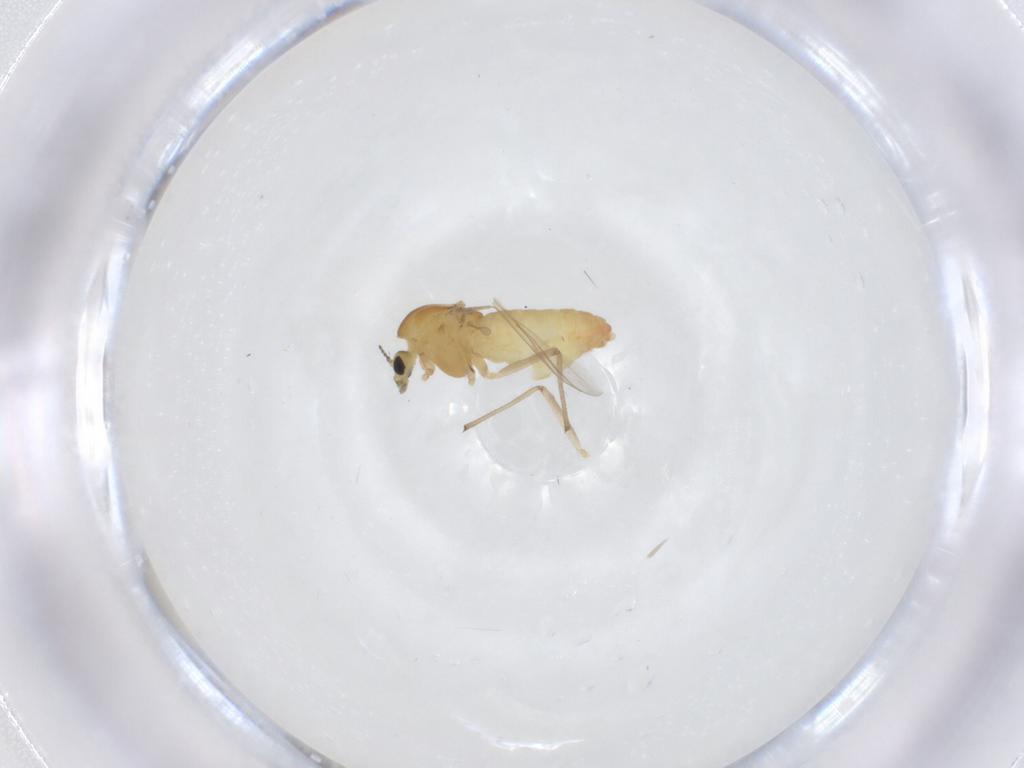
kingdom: Animalia
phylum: Arthropoda
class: Insecta
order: Diptera
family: Chironomidae
